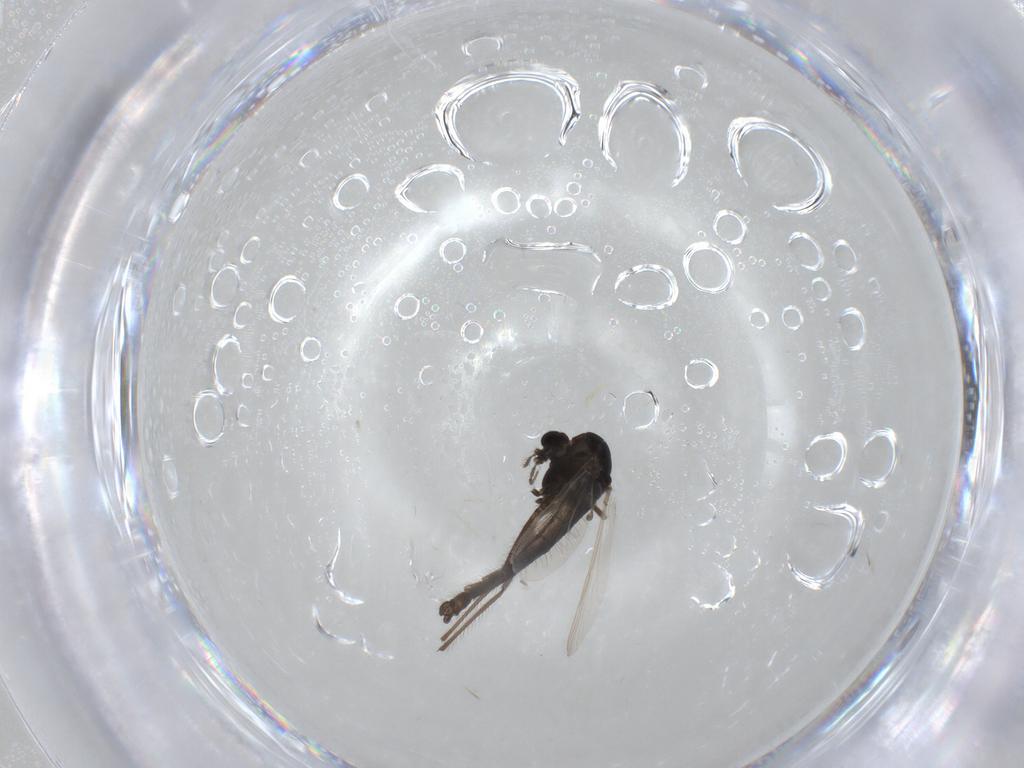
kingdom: Animalia
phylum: Arthropoda
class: Insecta
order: Diptera
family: Chironomidae
